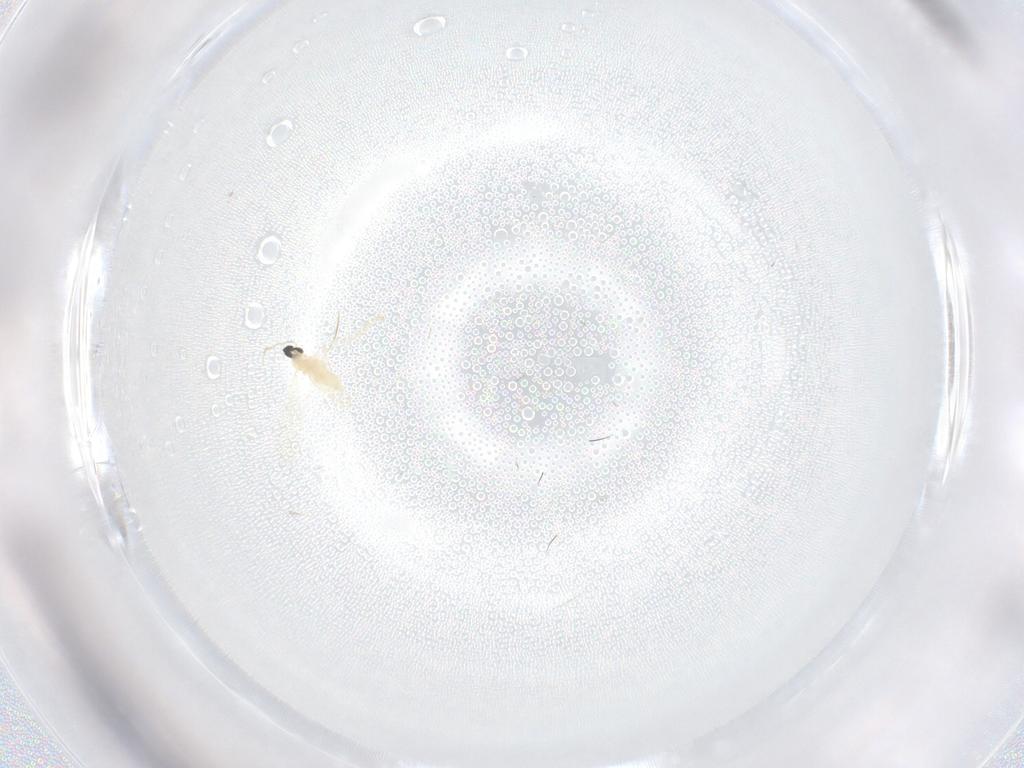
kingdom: Animalia
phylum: Arthropoda
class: Insecta
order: Diptera
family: Cecidomyiidae
